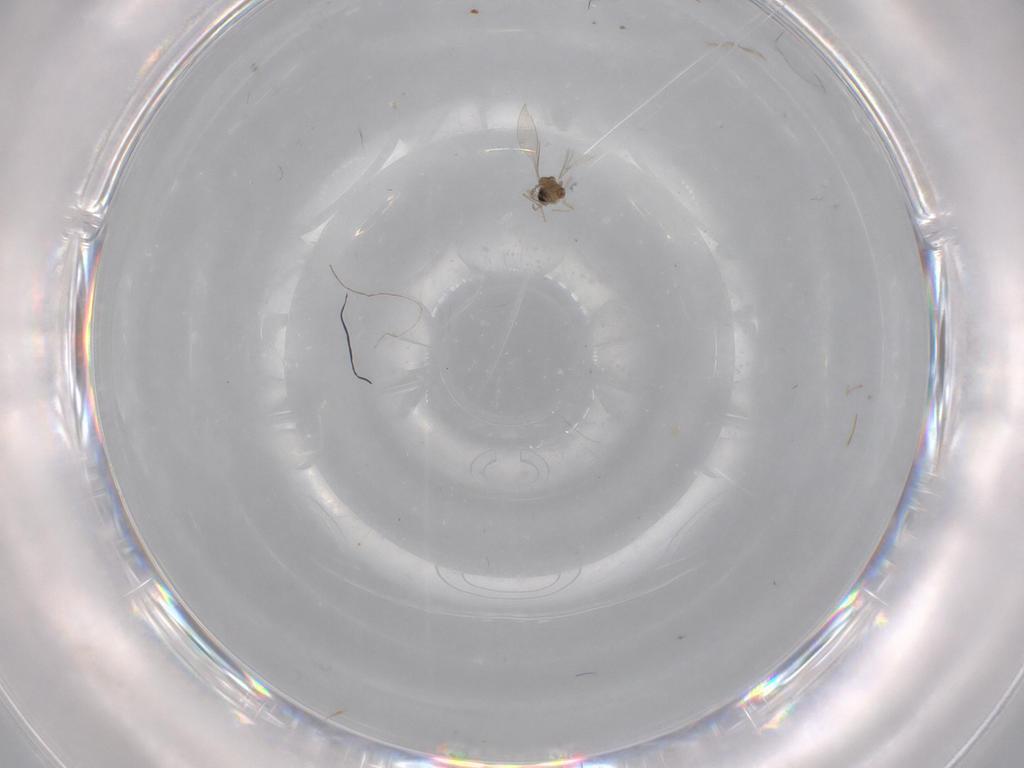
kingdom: Animalia
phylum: Arthropoda
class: Insecta
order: Diptera
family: Cecidomyiidae
